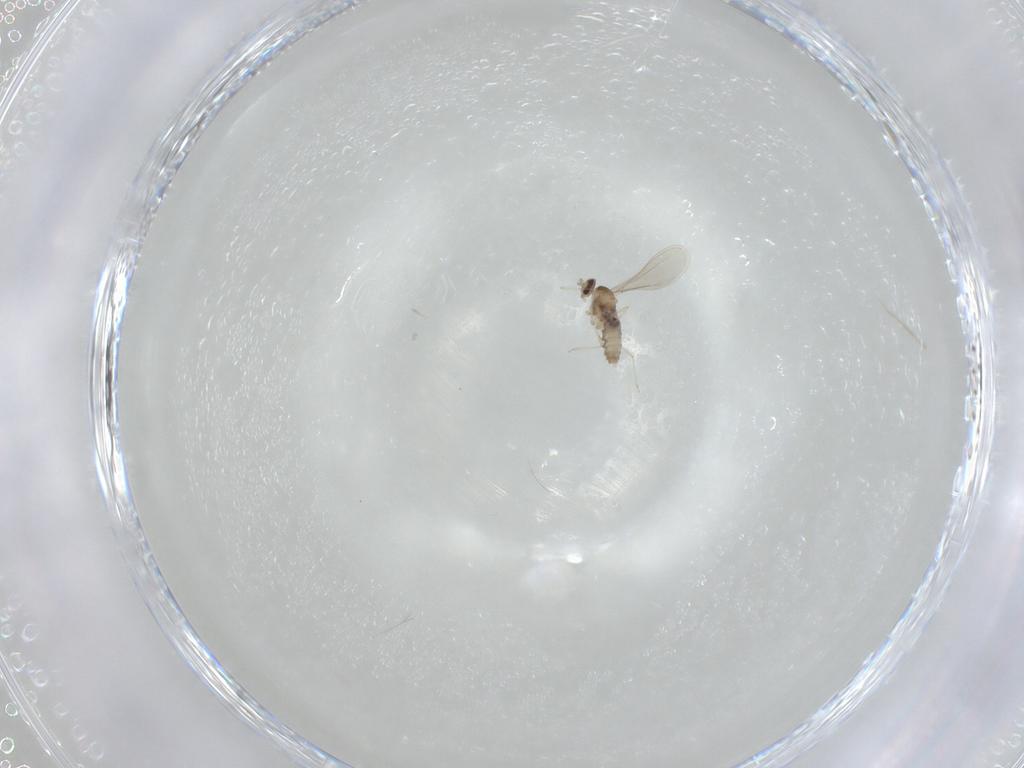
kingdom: Animalia
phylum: Arthropoda
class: Insecta
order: Diptera
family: Cecidomyiidae
